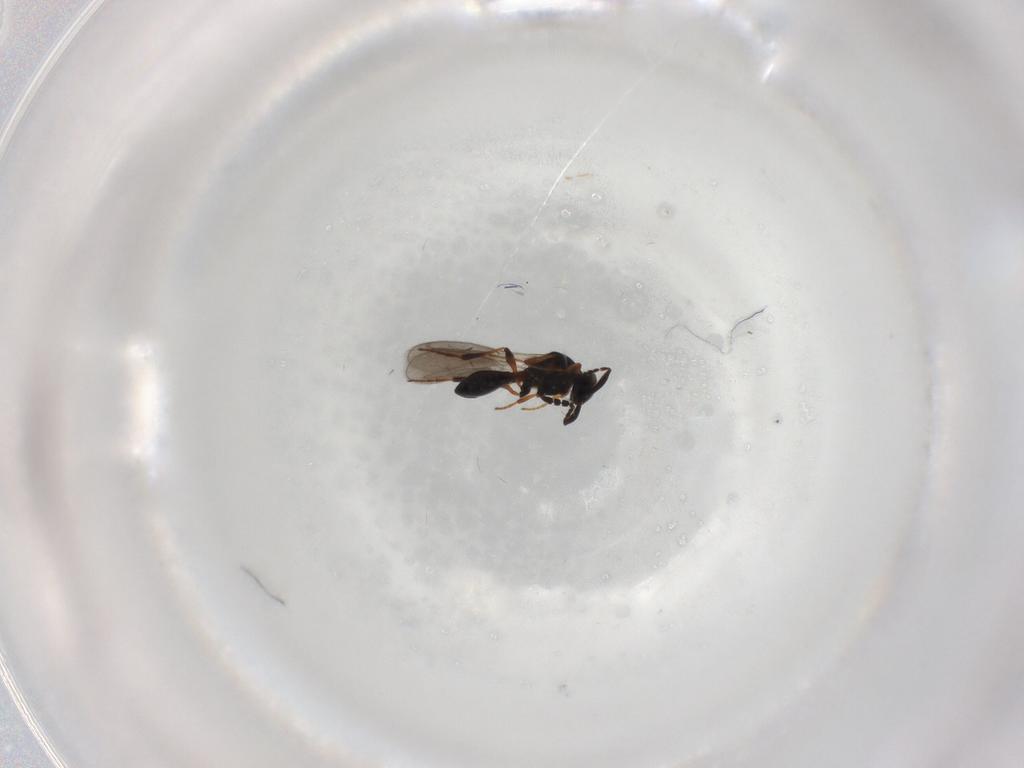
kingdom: Animalia
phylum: Arthropoda
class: Insecta
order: Hymenoptera
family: Platygastridae
